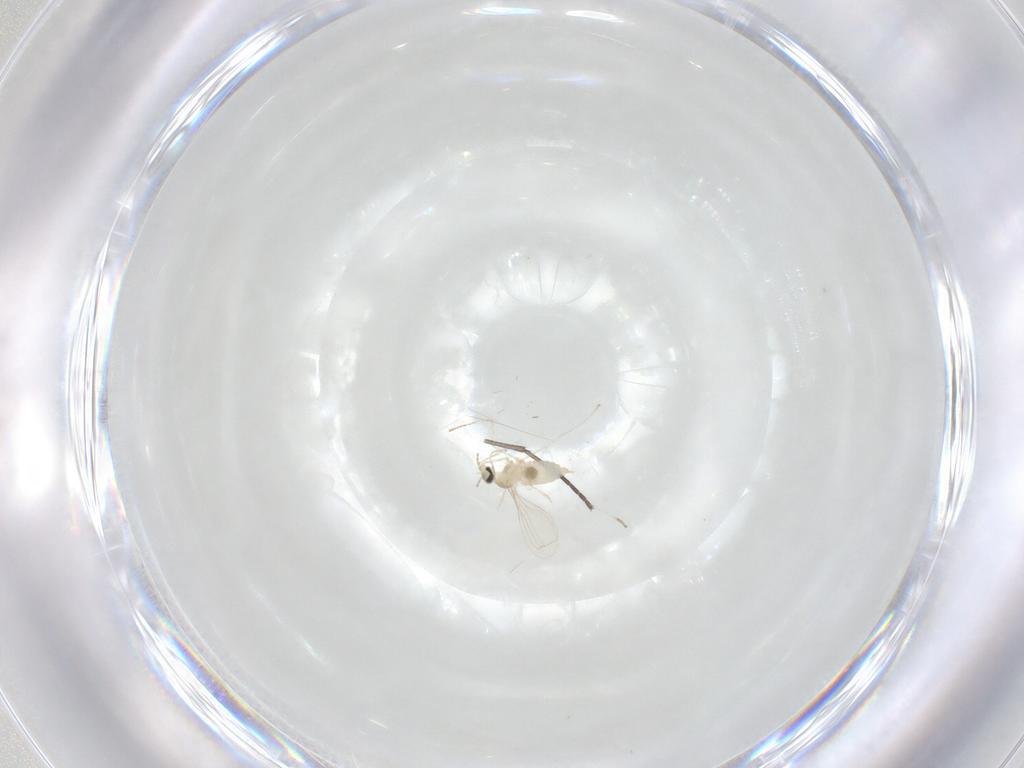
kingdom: Animalia
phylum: Arthropoda
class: Insecta
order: Diptera
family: Cecidomyiidae
